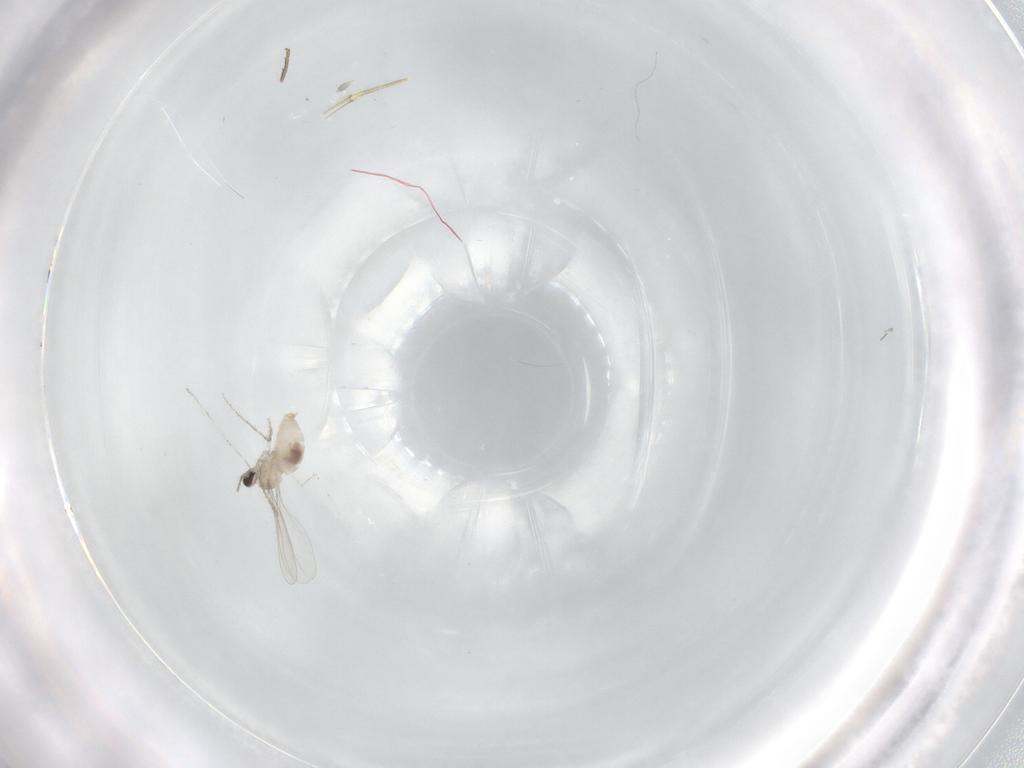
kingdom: Animalia
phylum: Arthropoda
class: Insecta
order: Diptera
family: Cecidomyiidae
